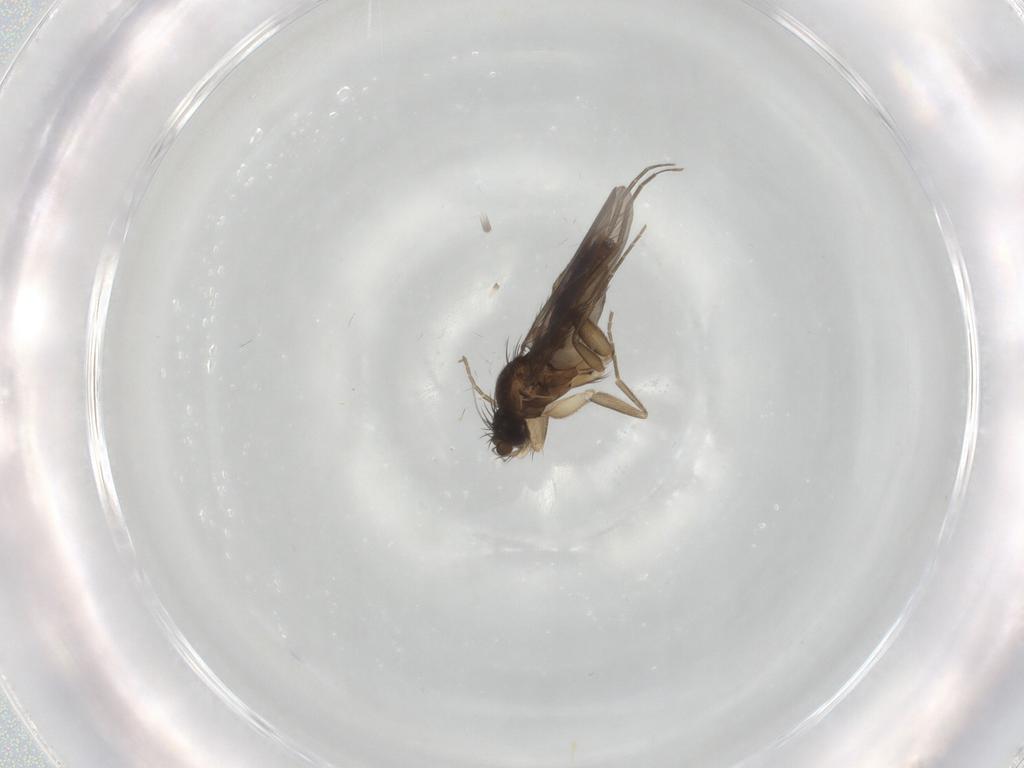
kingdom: Animalia
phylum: Arthropoda
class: Insecta
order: Diptera
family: Phoridae
